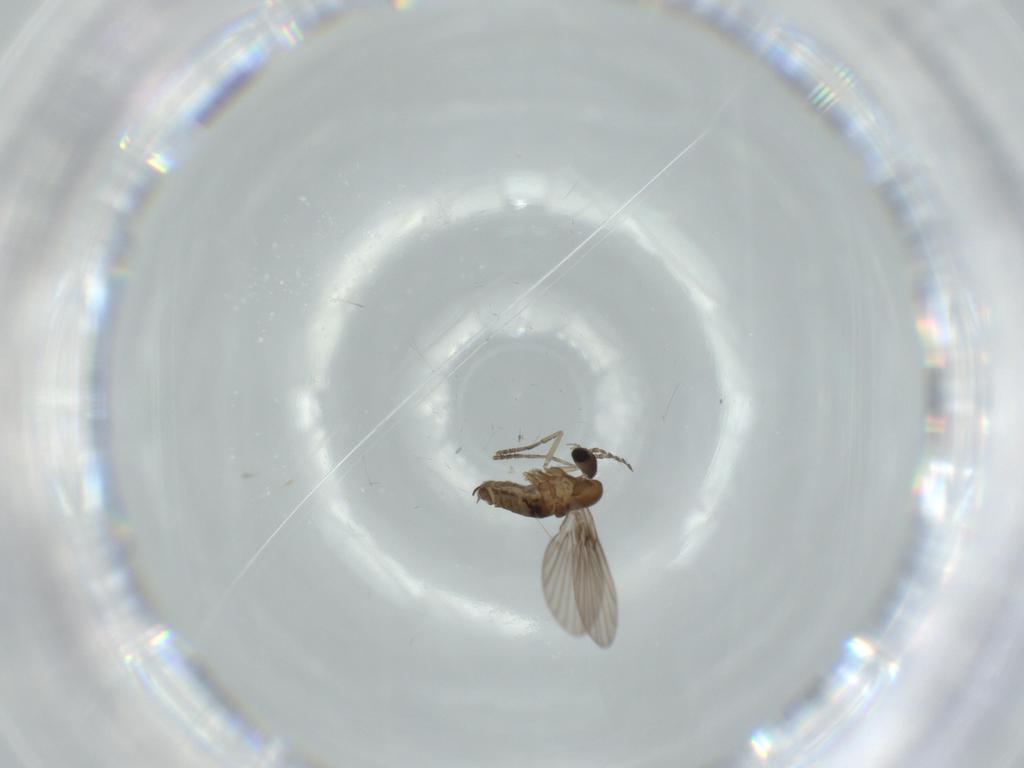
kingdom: Animalia
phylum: Arthropoda
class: Insecta
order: Diptera
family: Psychodidae
